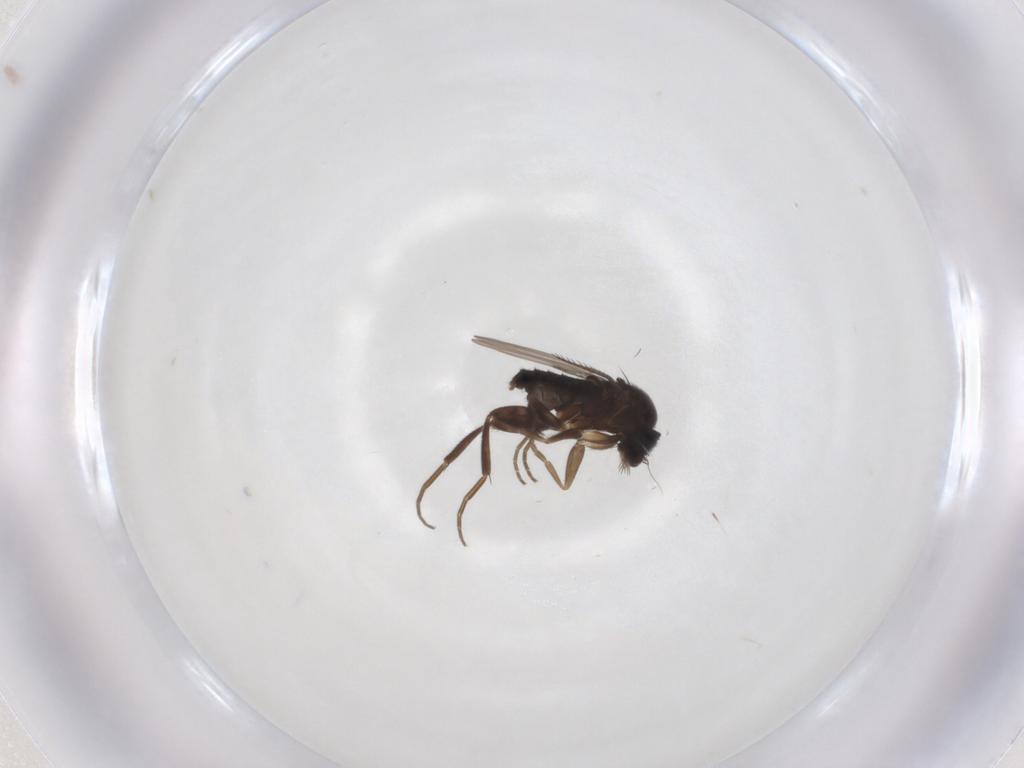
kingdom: Animalia
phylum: Arthropoda
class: Insecta
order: Diptera
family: Phoridae
